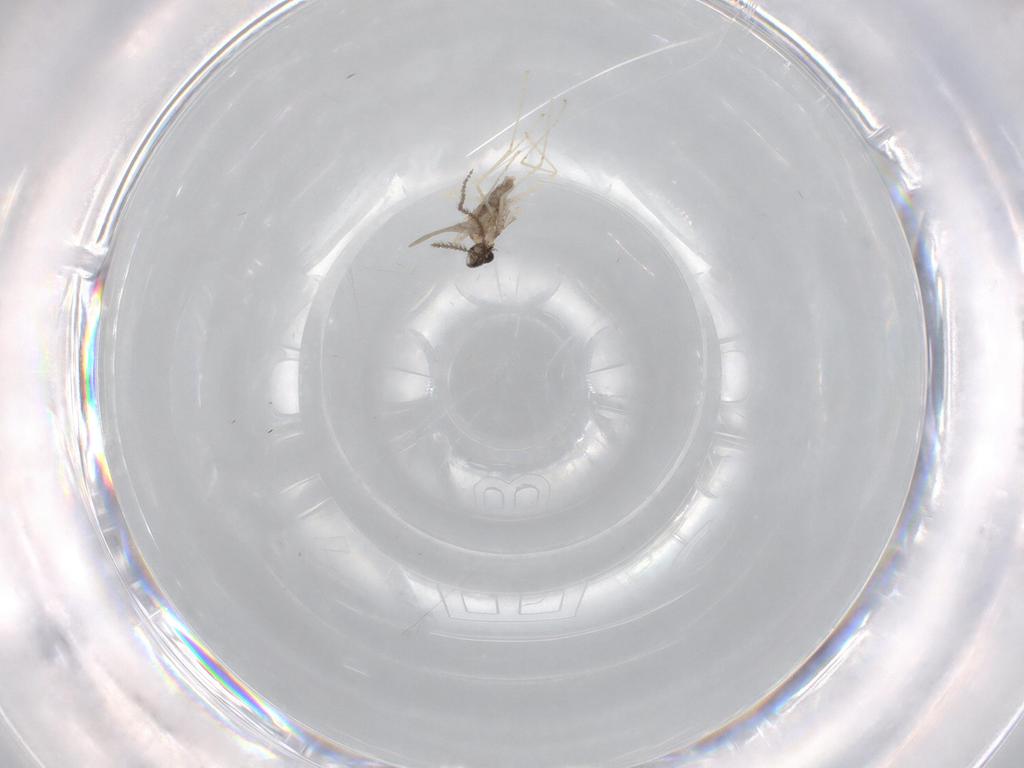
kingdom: Animalia
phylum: Arthropoda
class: Insecta
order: Diptera
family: Cecidomyiidae
